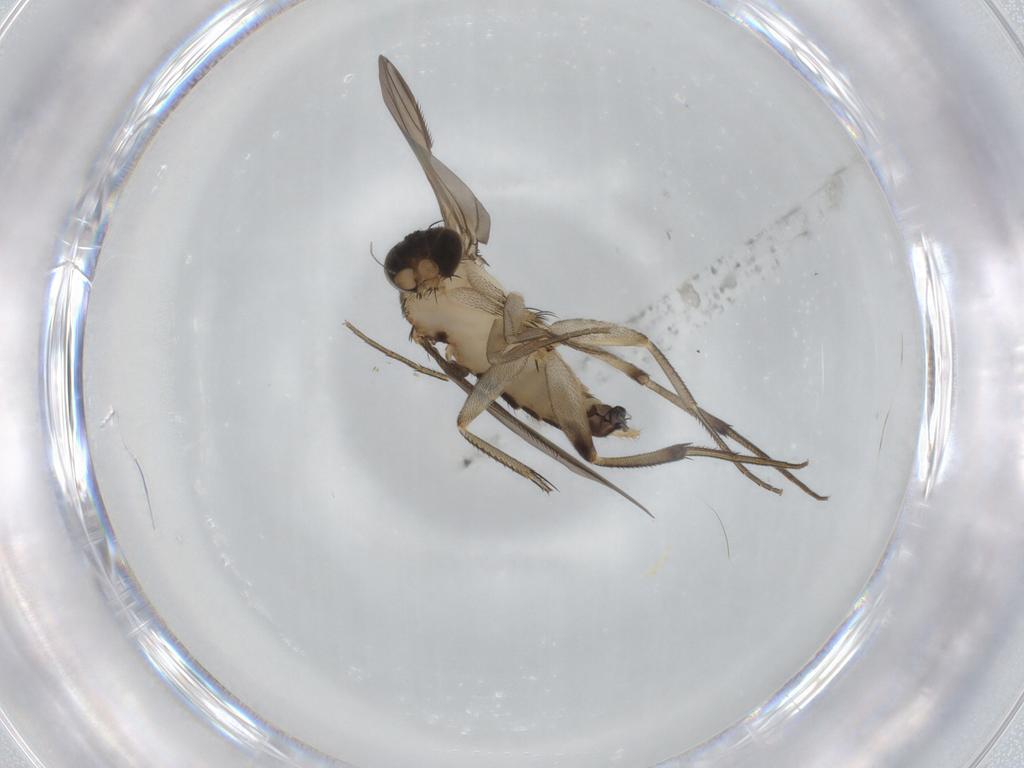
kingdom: Animalia
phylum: Arthropoda
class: Insecta
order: Diptera
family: Phoridae
